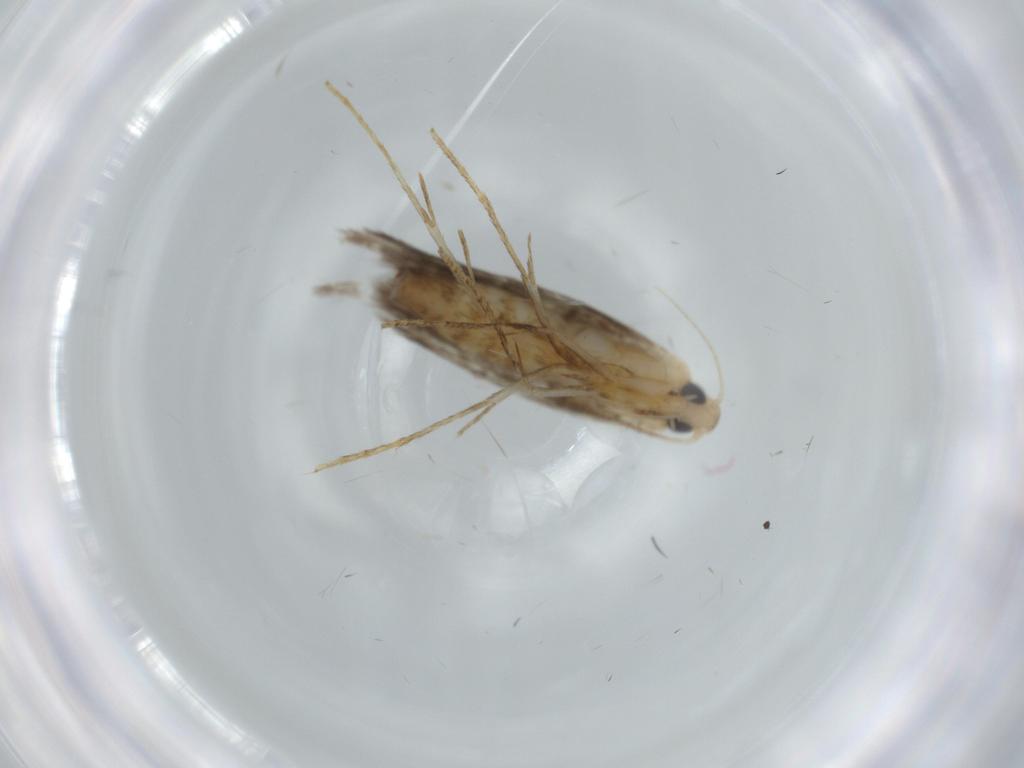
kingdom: Animalia
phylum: Arthropoda
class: Insecta
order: Lepidoptera
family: Tischeriidae
